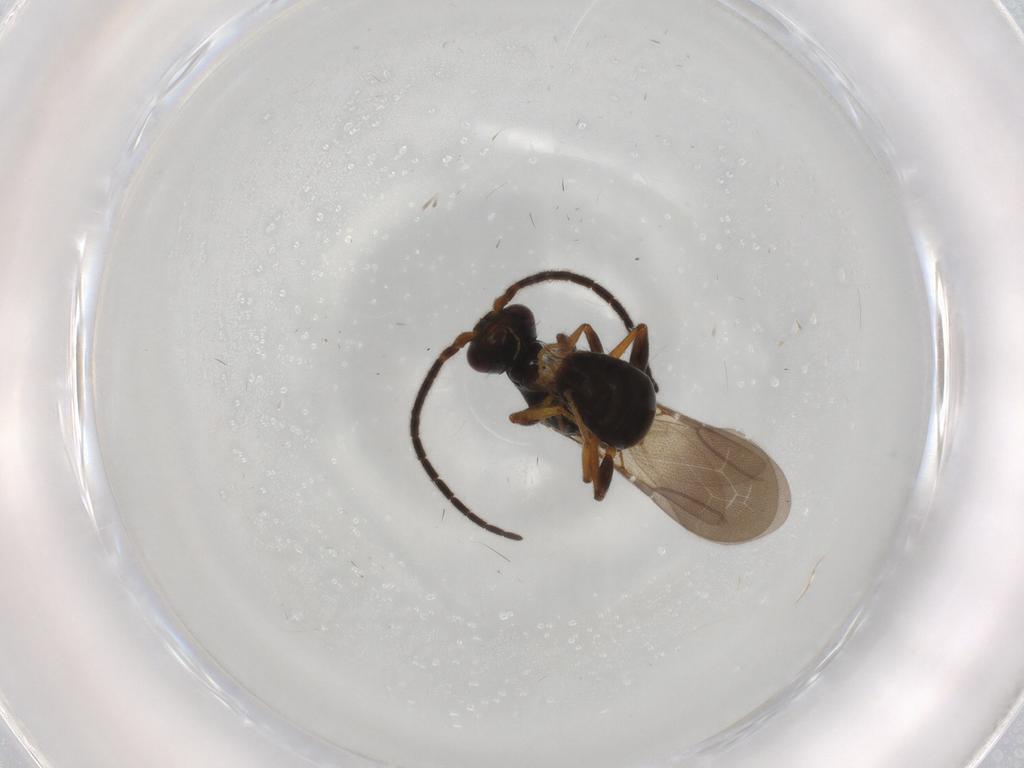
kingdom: Animalia
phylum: Arthropoda
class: Insecta
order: Hymenoptera
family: Bethylidae
